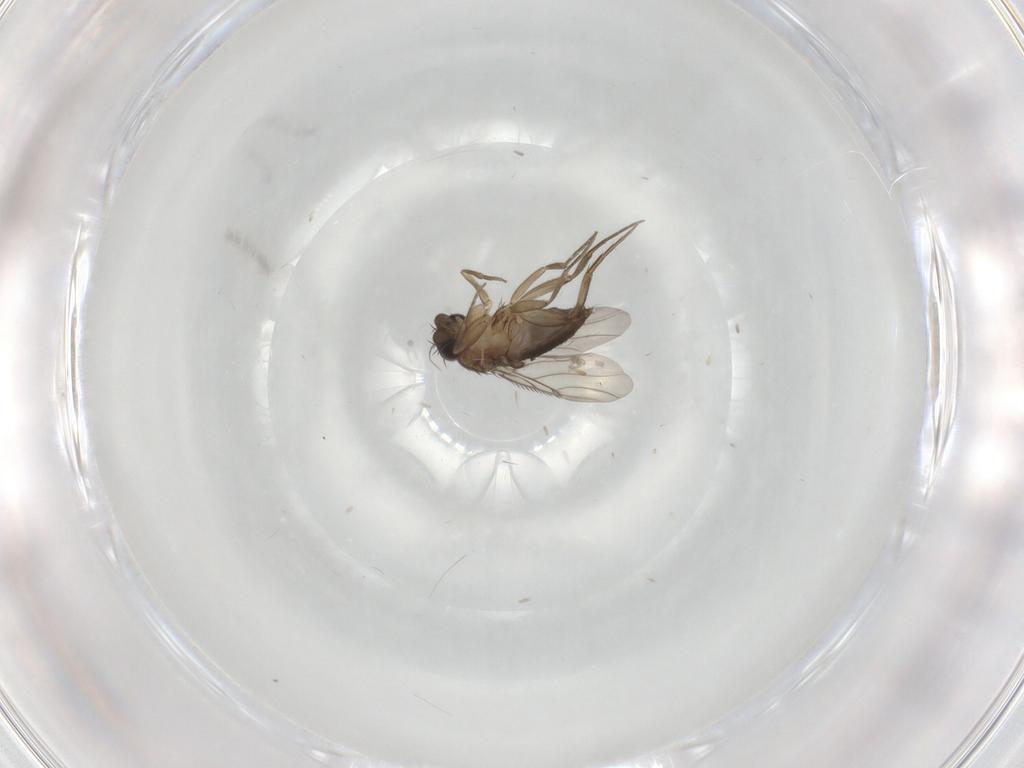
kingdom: Animalia
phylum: Arthropoda
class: Insecta
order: Diptera
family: Phoridae
